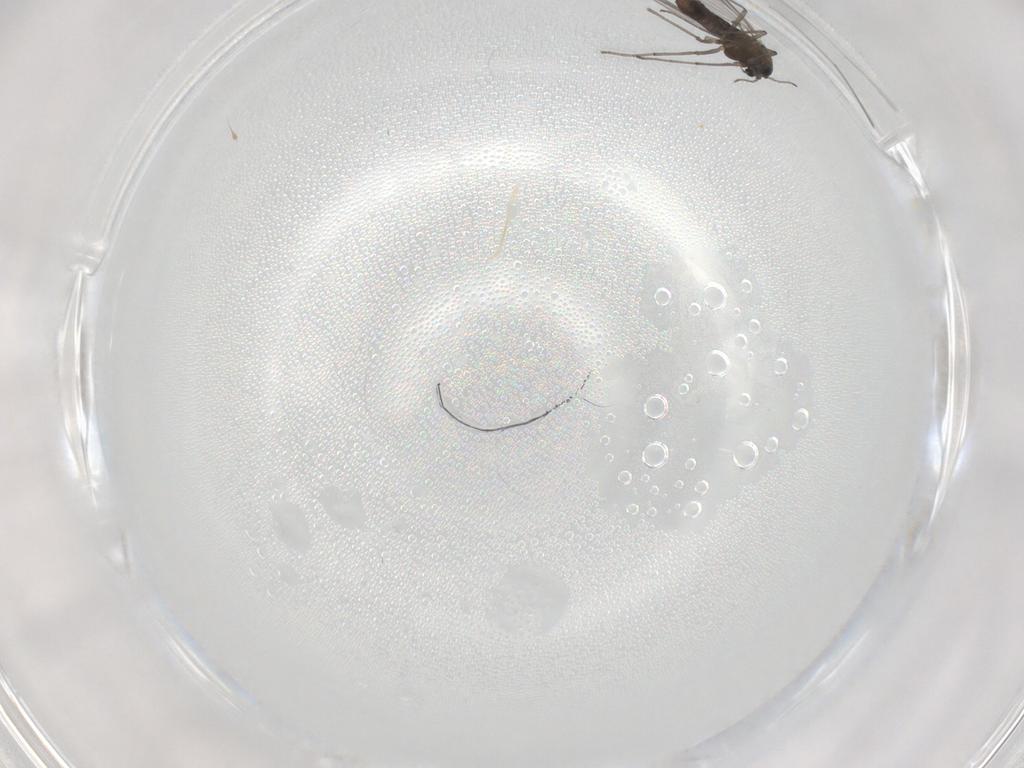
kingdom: Animalia
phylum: Arthropoda
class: Insecta
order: Diptera
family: Chironomidae
